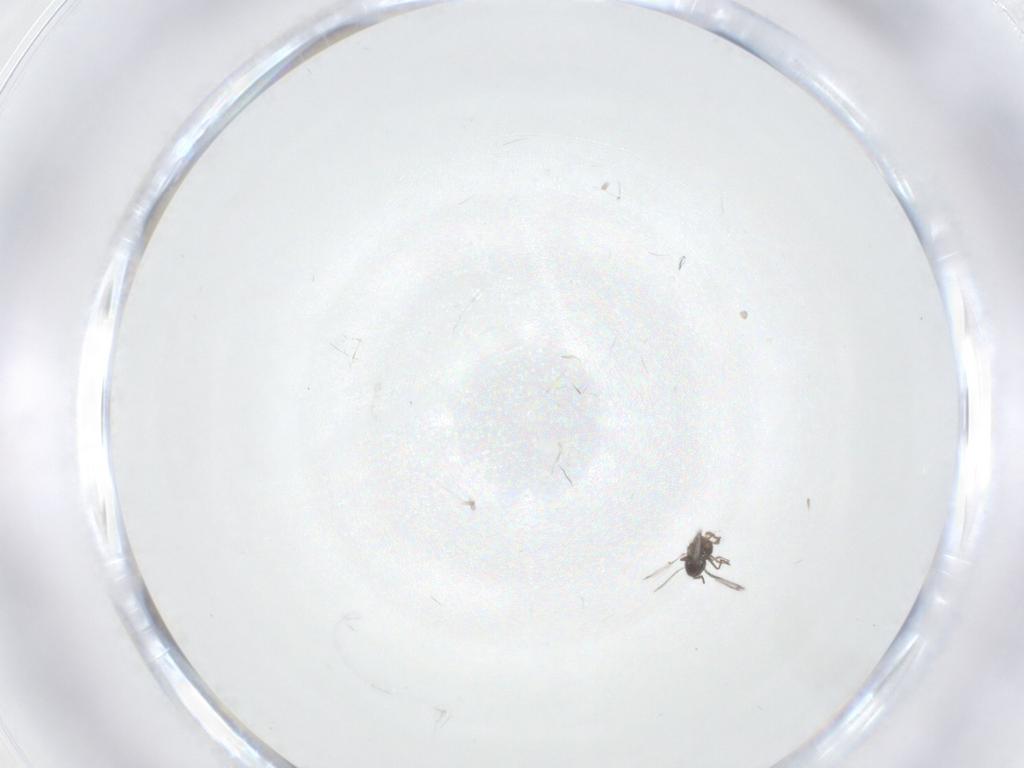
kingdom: Animalia
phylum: Arthropoda
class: Insecta
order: Hymenoptera
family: Trichogrammatidae
